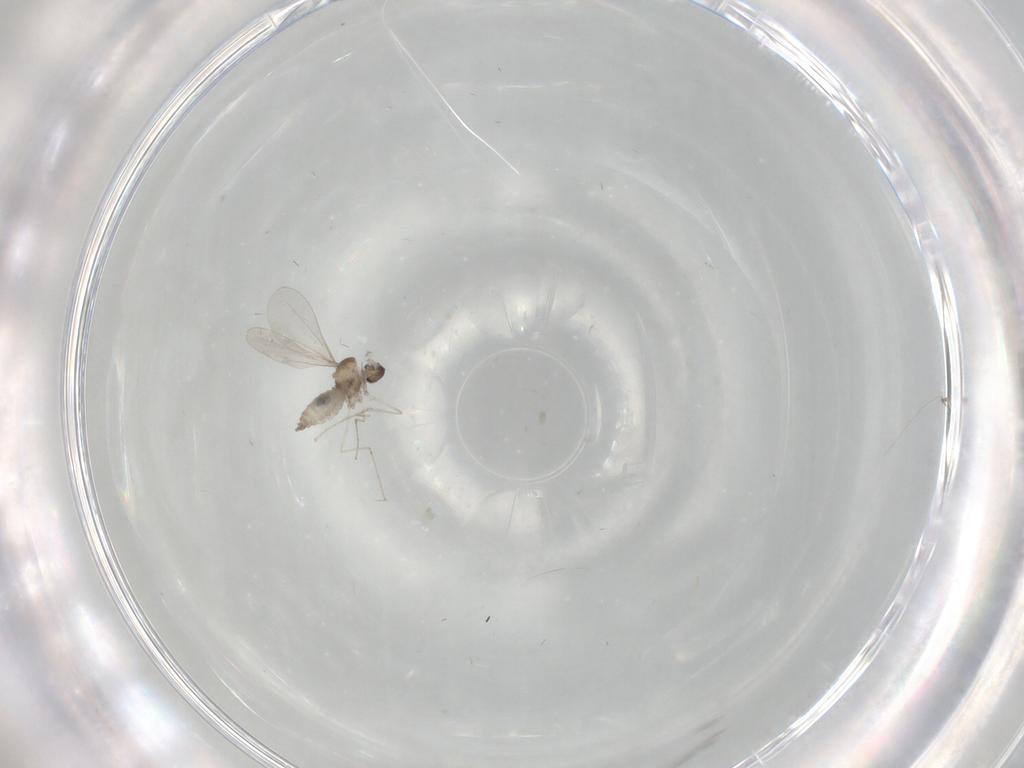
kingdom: Animalia
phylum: Arthropoda
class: Insecta
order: Diptera
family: Cecidomyiidae
